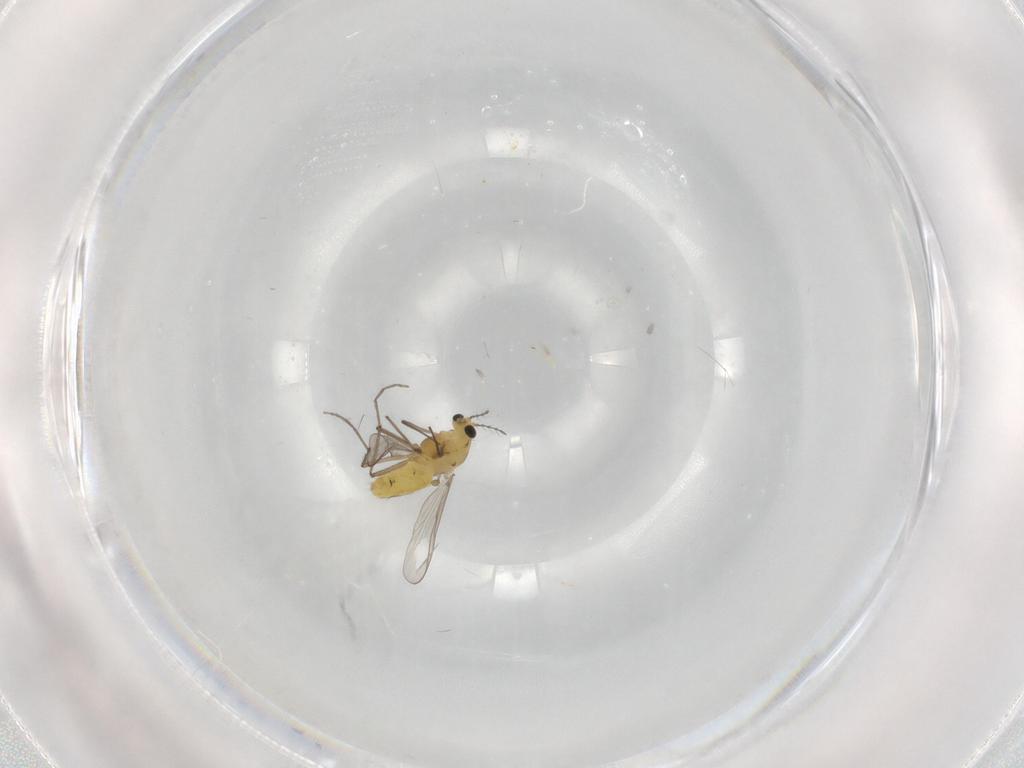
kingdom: Animalia
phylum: Arthropoda
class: Insecta
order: Diptera
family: Chironomidae
